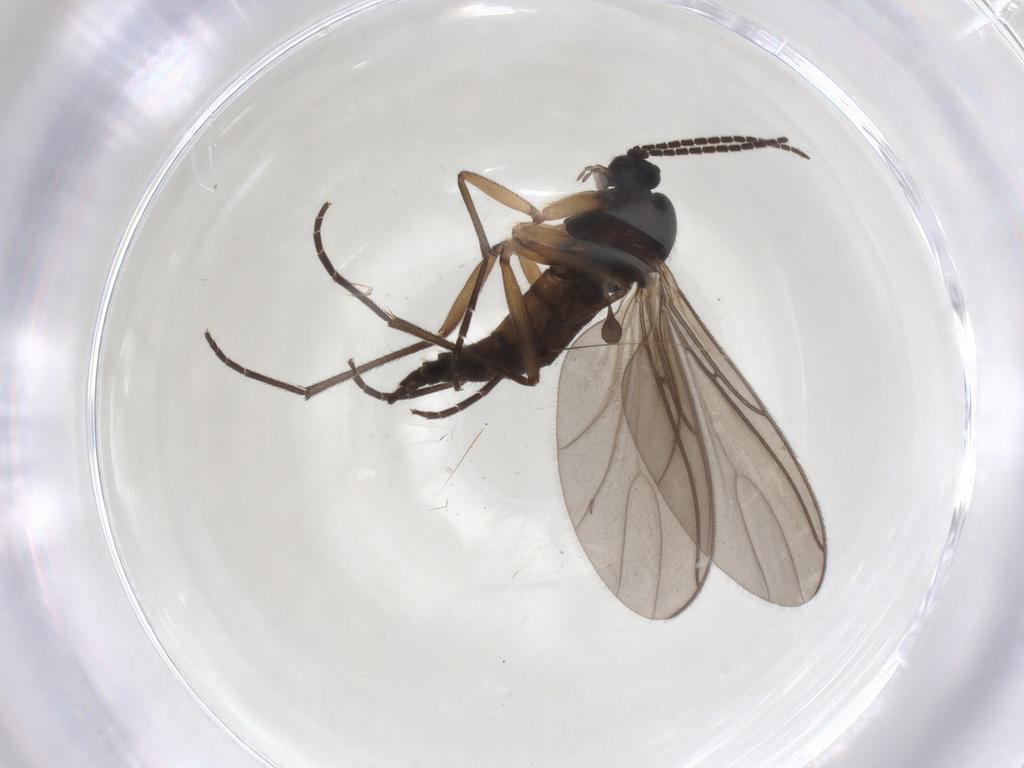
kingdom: Animalia
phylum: Arthropoda
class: Insecta
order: Diptera
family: Sciaridae
